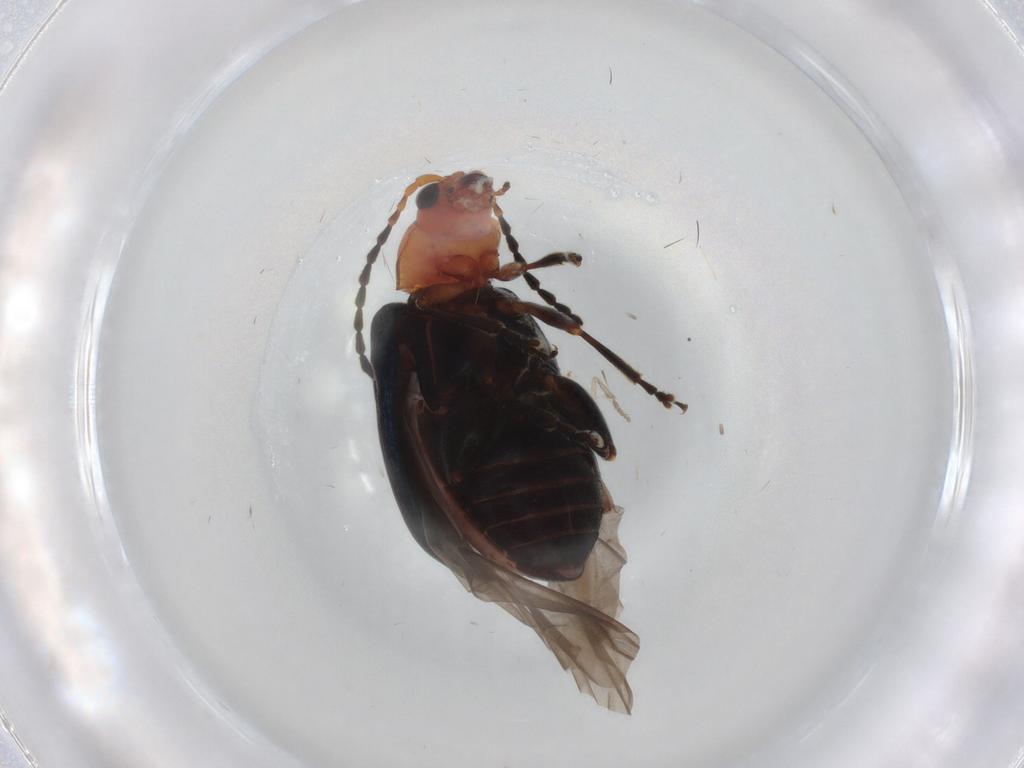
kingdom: Animalia
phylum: Arthropoda
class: Insecta
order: Coleoptera
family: Chrysomelidae
